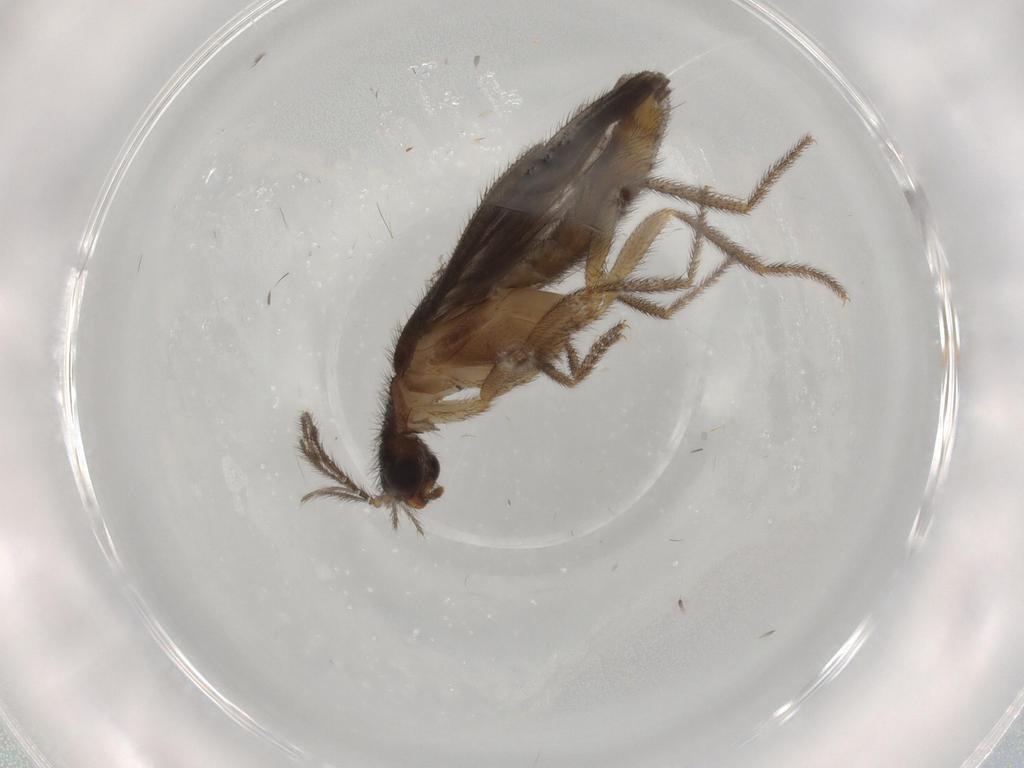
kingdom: Animalia
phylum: Arthropoda
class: Insecta
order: Coleoptera
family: Phengodidae
